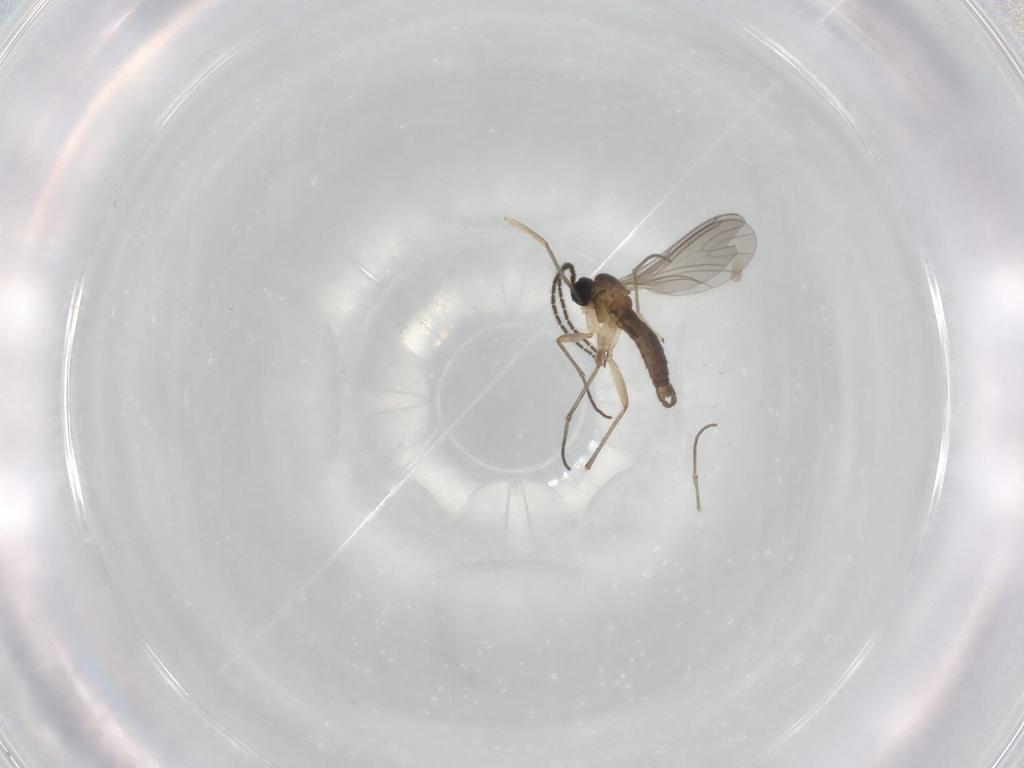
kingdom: Animalia
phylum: Arthropoda
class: Insecta
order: Diptera
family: Sciaridae
